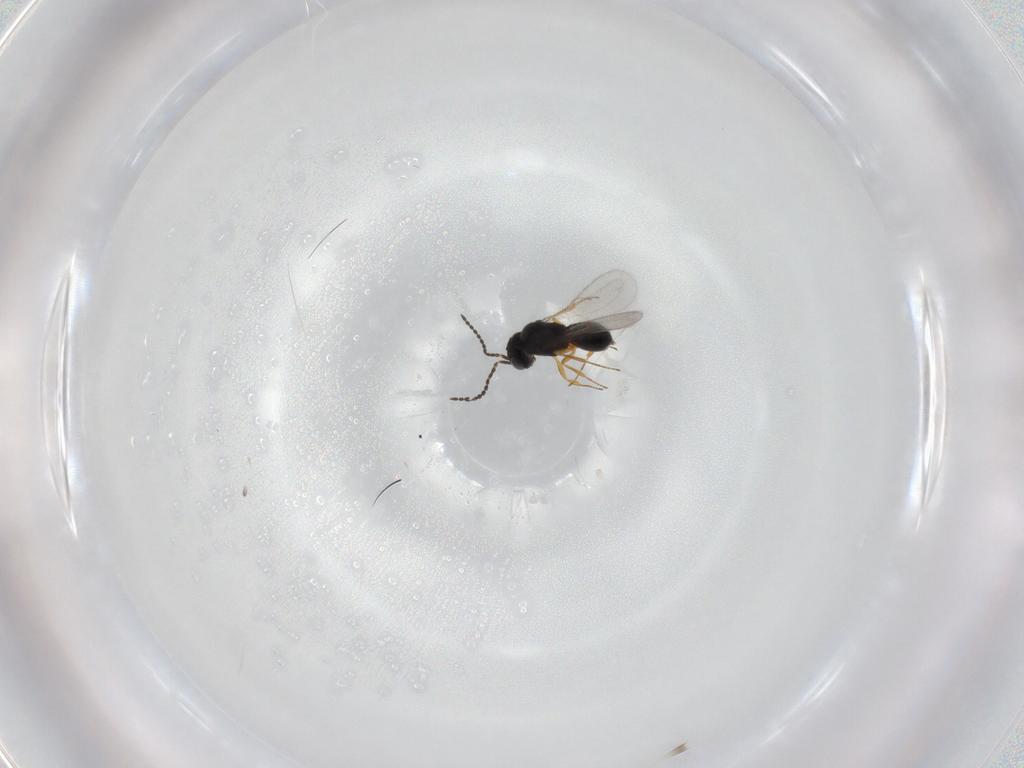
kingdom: Animalia
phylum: Arthropoda
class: Insecta
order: Hymenoptera
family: Scelionidae
